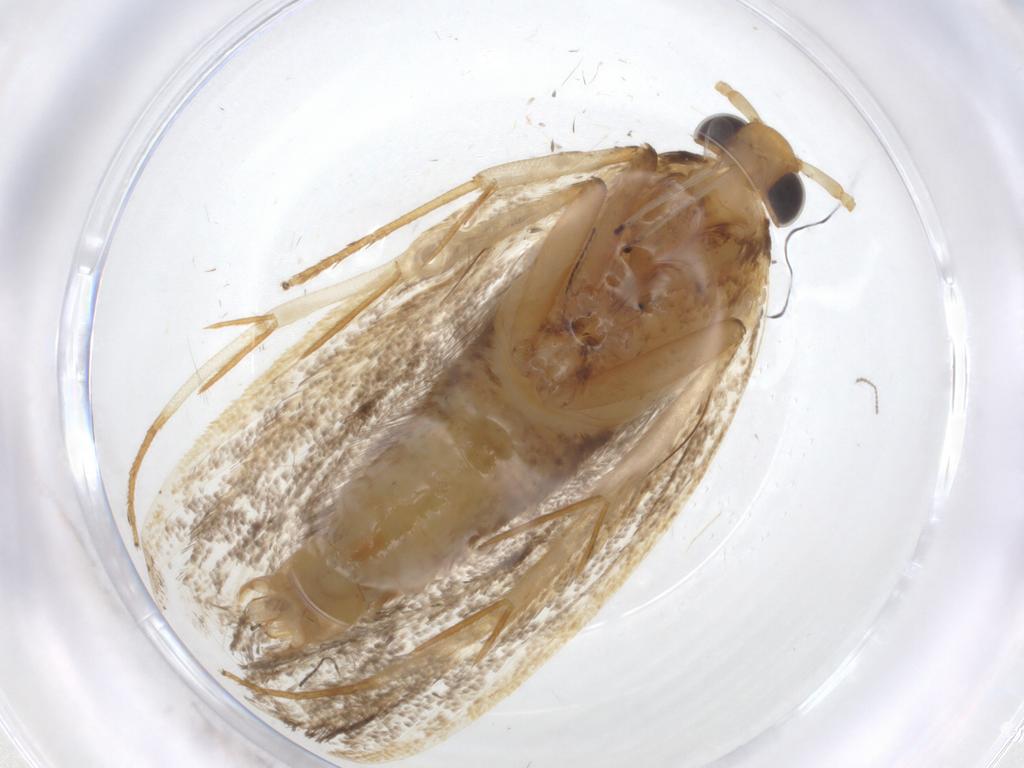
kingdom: Animalia
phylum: Arthropoda
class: Insecta
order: Lepidoptera
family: Lecithoceridae
